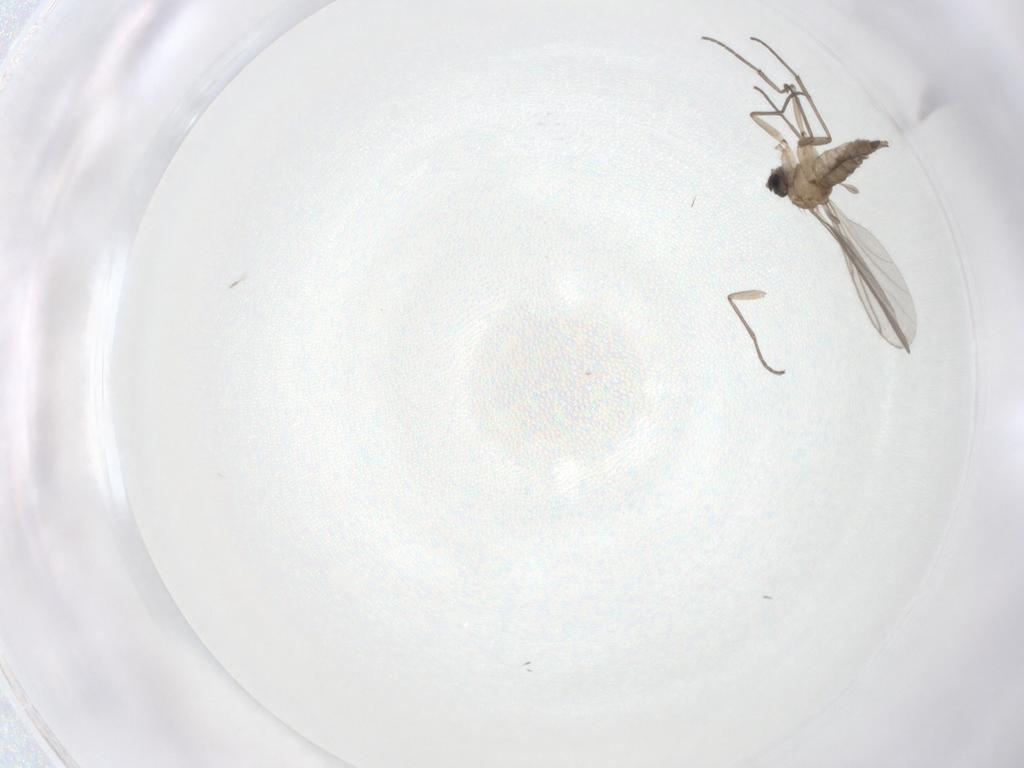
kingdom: Animalia
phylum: Arthropoda
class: Insecta
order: Diptera
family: Sciaridae
